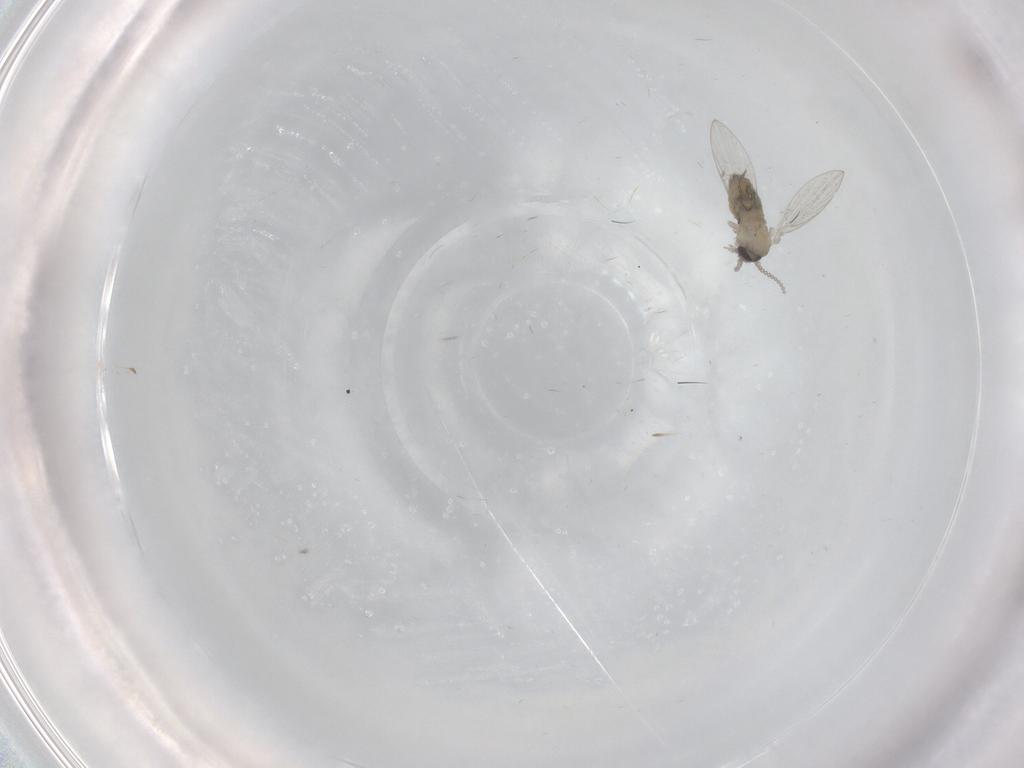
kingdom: Animalia
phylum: Arthropoda
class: Insecta
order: Diptera
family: Psychodidae
